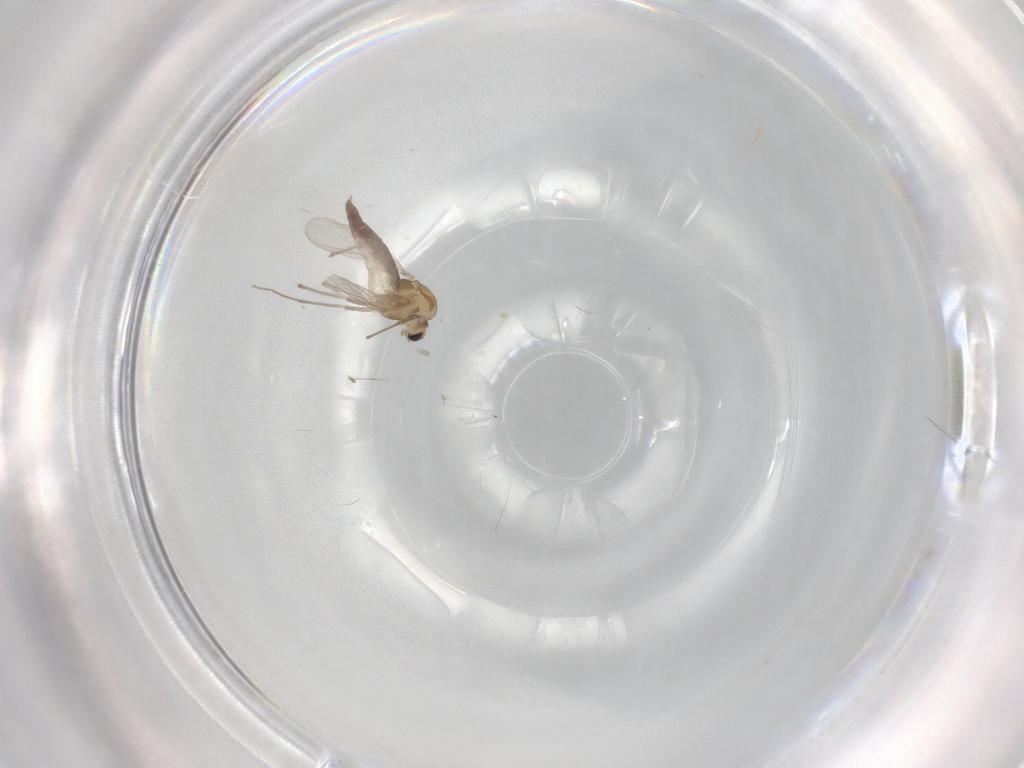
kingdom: Animalia
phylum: Arthropoda
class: Insecta
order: Diptera
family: Chironomidae
